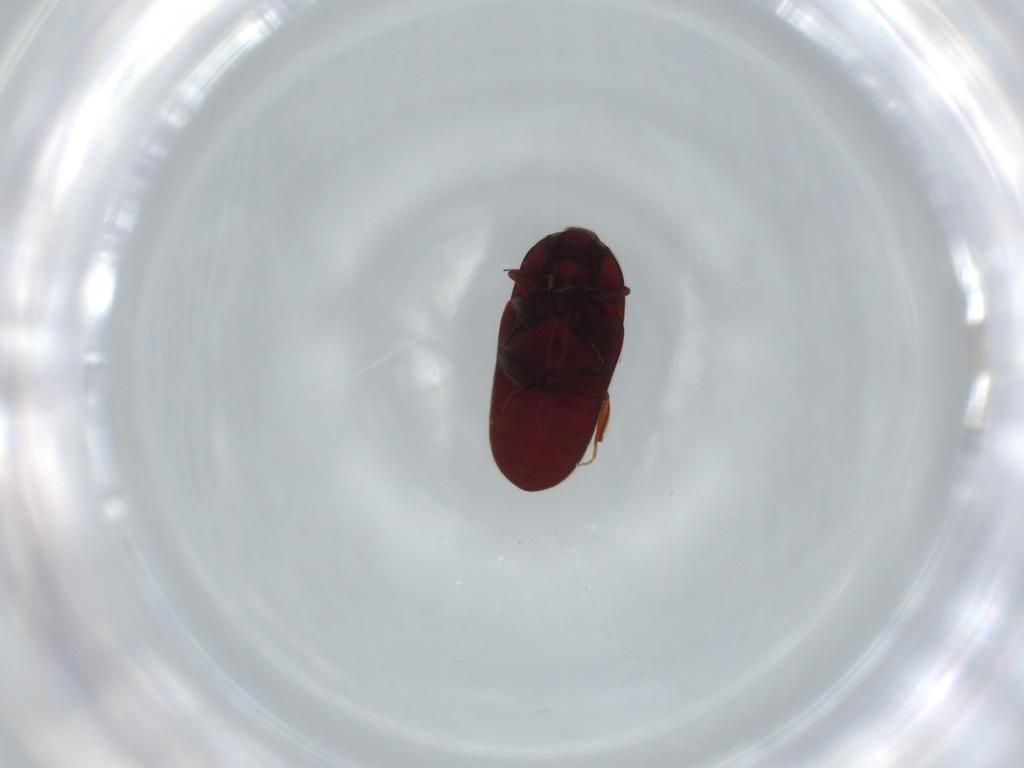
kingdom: Animalia
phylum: Arthropoda
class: Insecta
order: Coleoptera
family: Throscidae
